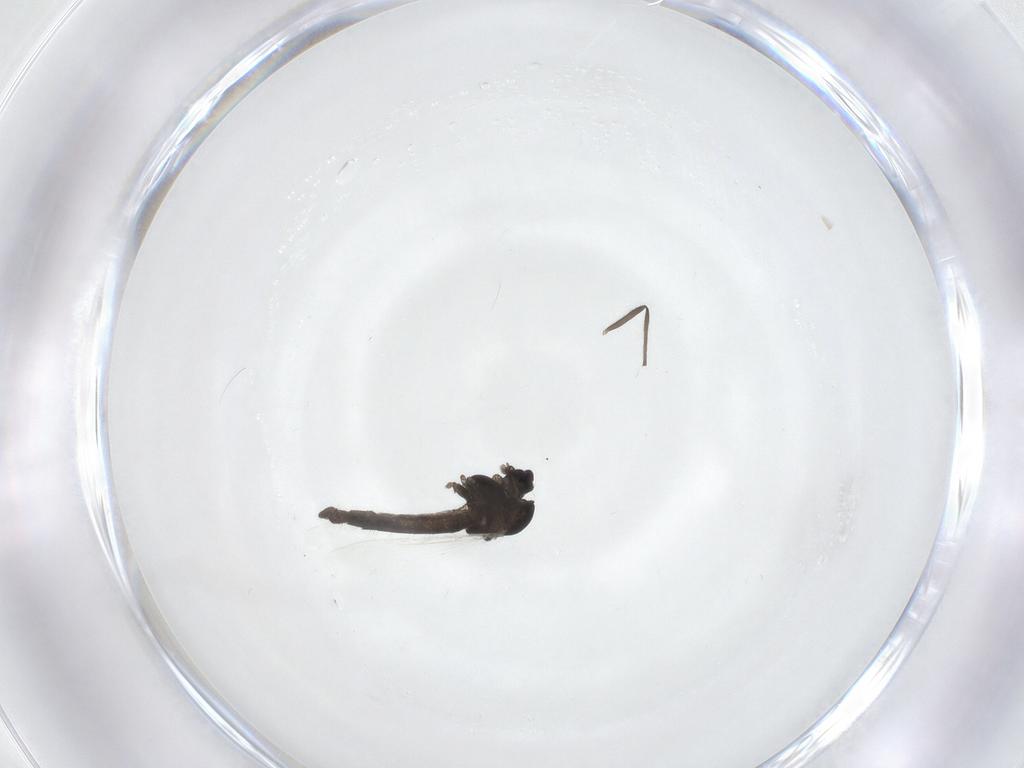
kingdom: Animalia
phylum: Arthropoda
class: Insecta
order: Diptera
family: Chironomidae
